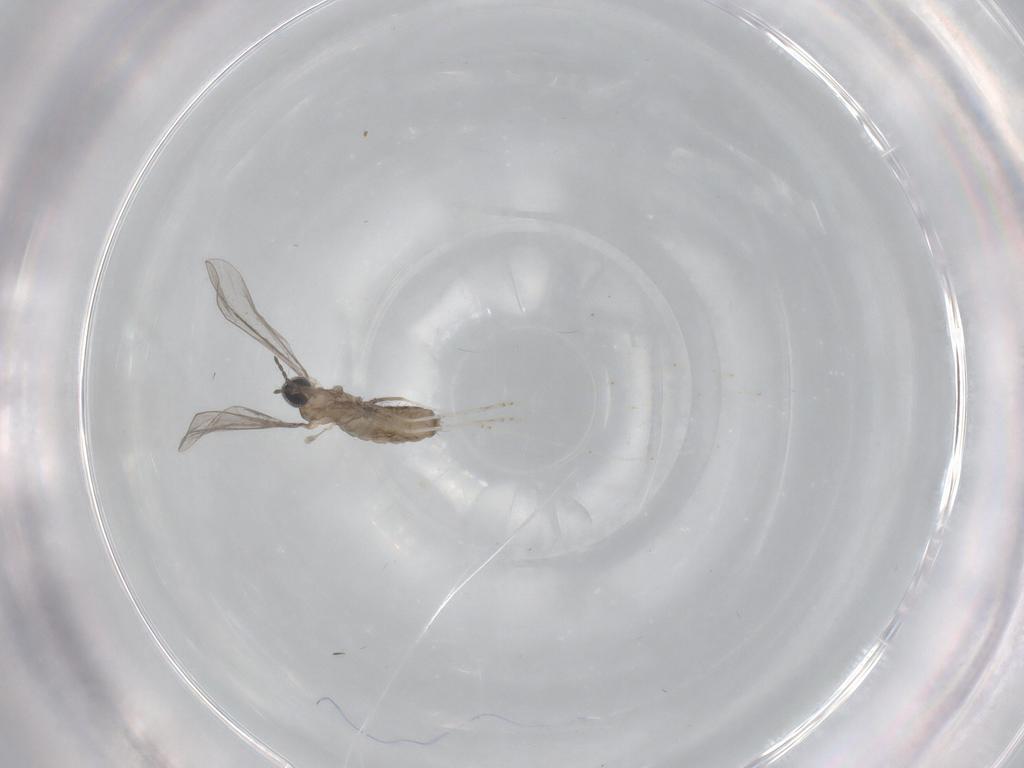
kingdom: Animalia
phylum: Arthropoda
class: Insecta
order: Diptera
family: Cecidomyiidae
